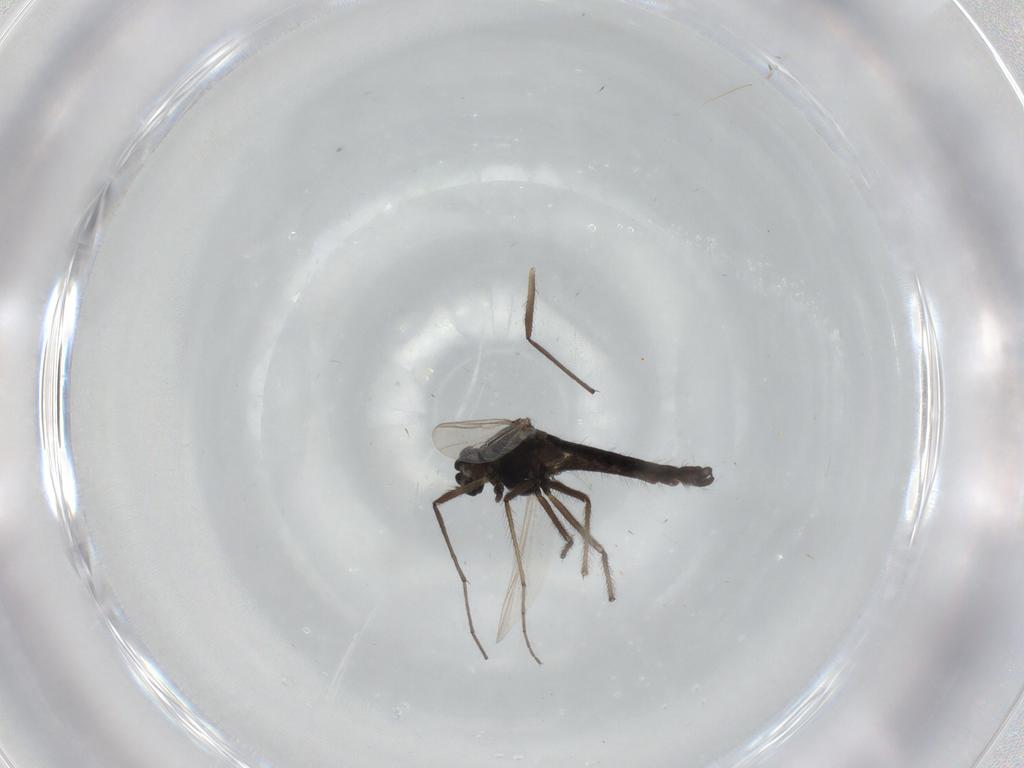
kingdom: Animalia
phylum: Arthropoda
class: Insecta
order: Diptera
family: Chironomidae
